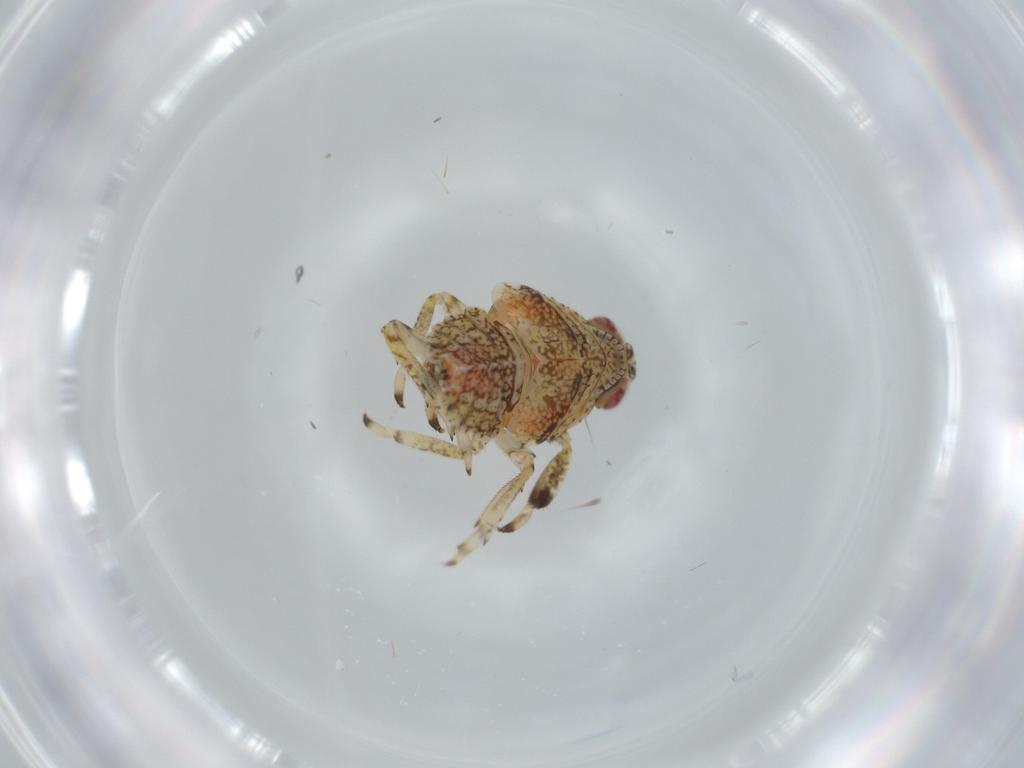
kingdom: Animalia
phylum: Arthropoda
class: Insecta
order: Hemiptera
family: Issidae
